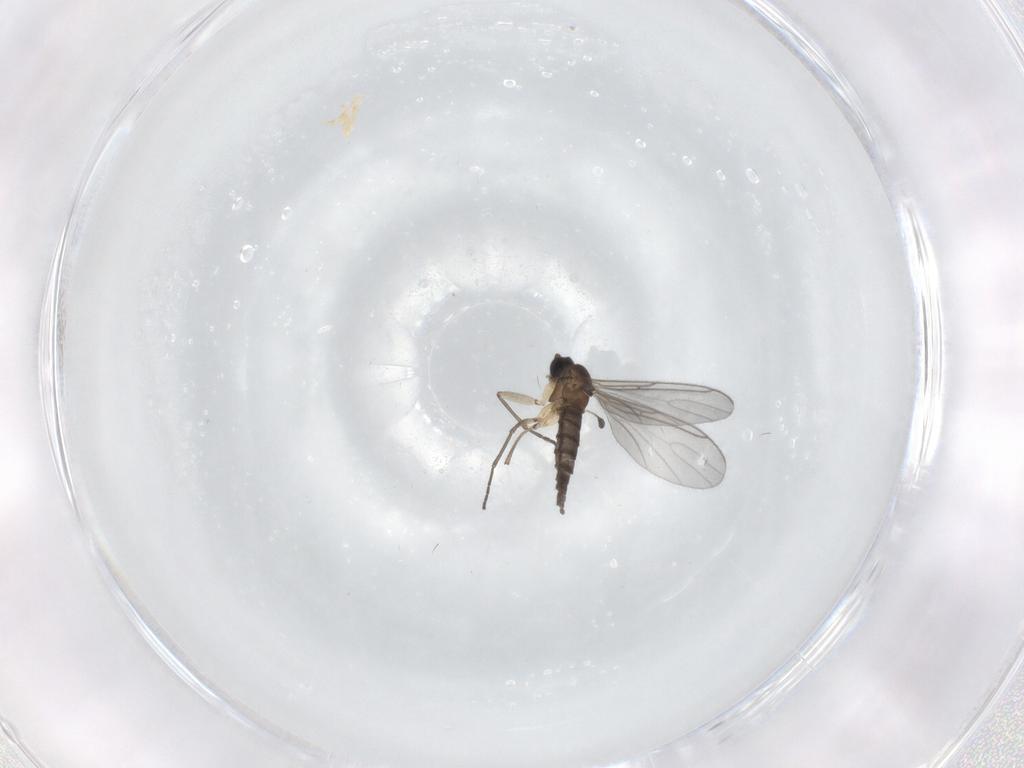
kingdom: Animalia
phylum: Arthropoda
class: Insecta
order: Diptera
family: Sciaridae
